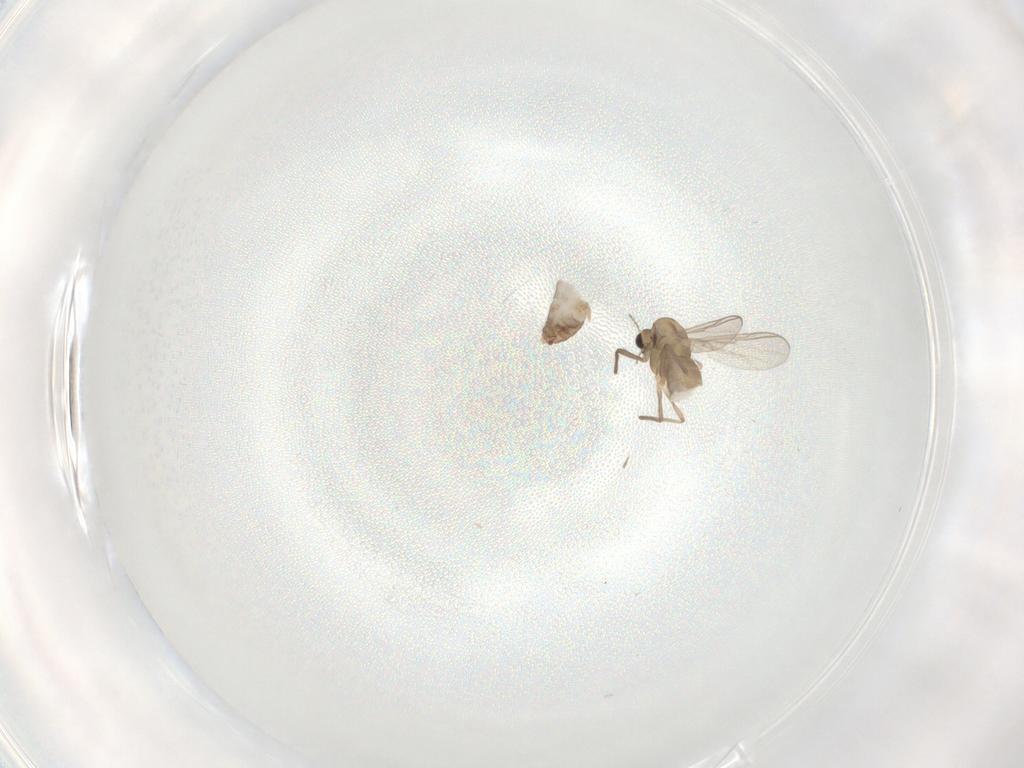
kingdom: Animalia
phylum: Arthropoda
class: Insecta
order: Diptera
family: Chironomidae
